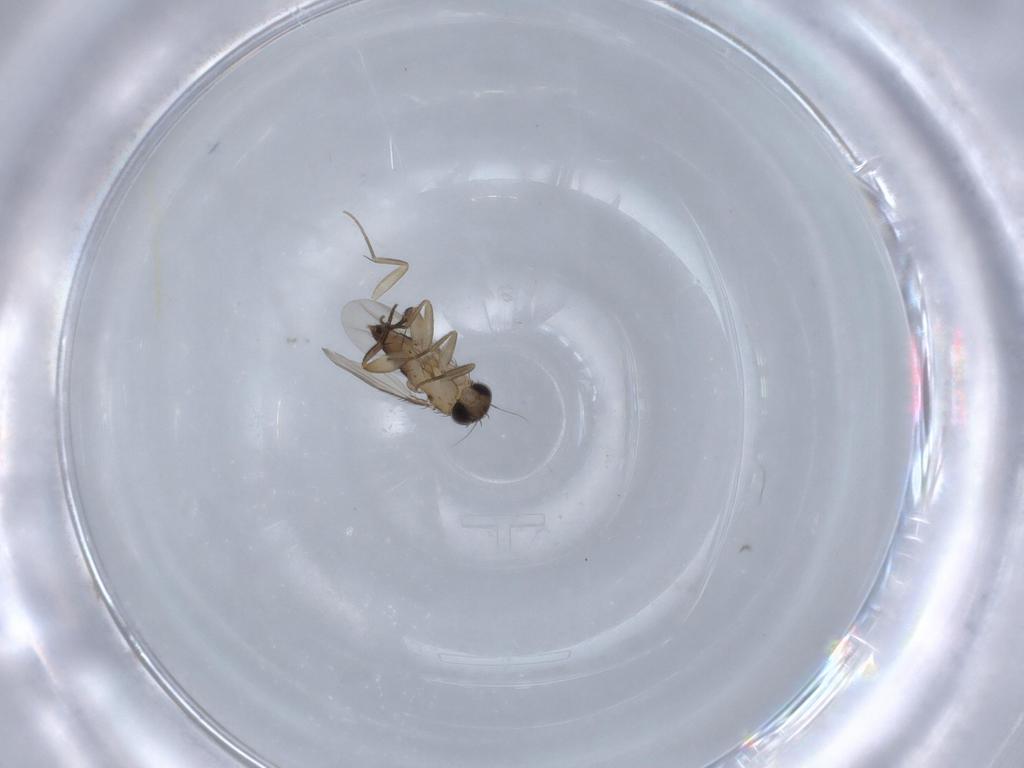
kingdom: Animalia
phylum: Arthropoda
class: Insecta
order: Diptera
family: Phoridae
